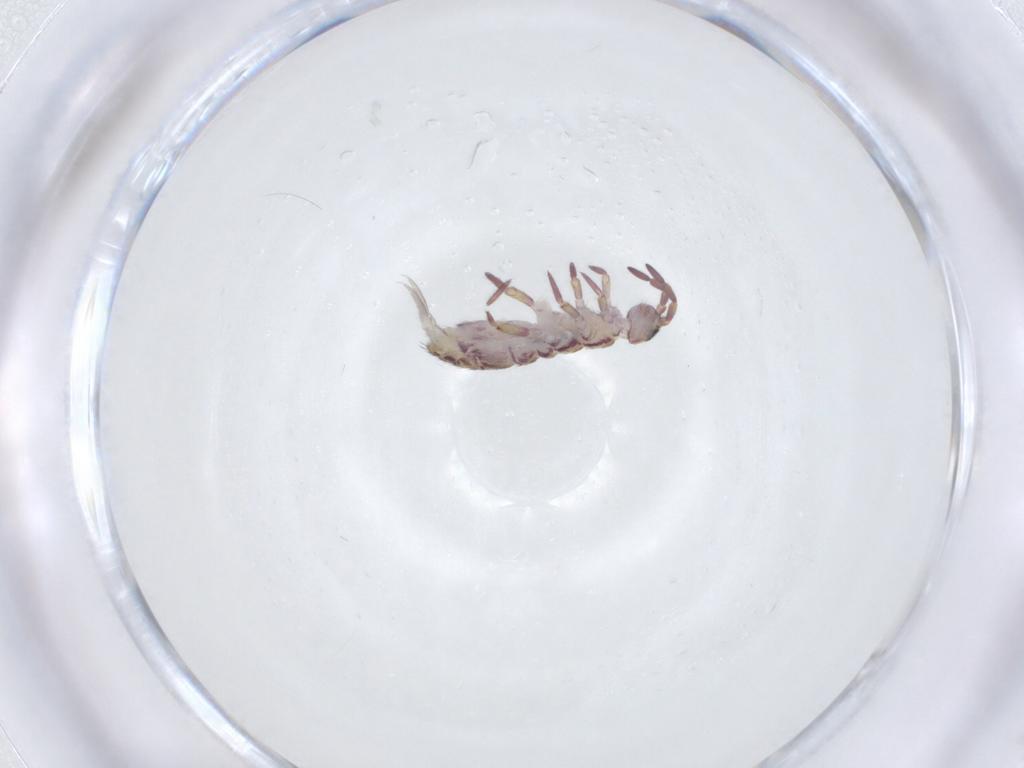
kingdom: Animalia
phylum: Arthropoda
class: Collembola
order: Entomobryomorpha
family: Isotomidae
